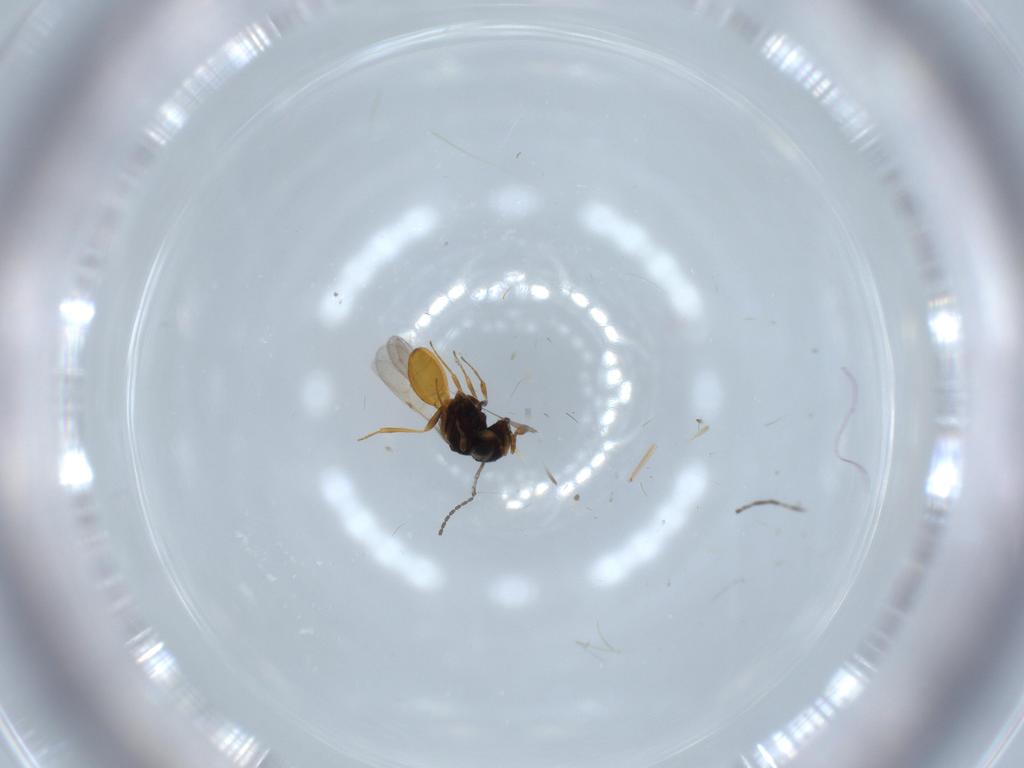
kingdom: Animalia
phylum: Arthropoda
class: Insecta
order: Hymenoptera
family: Scelionidae
